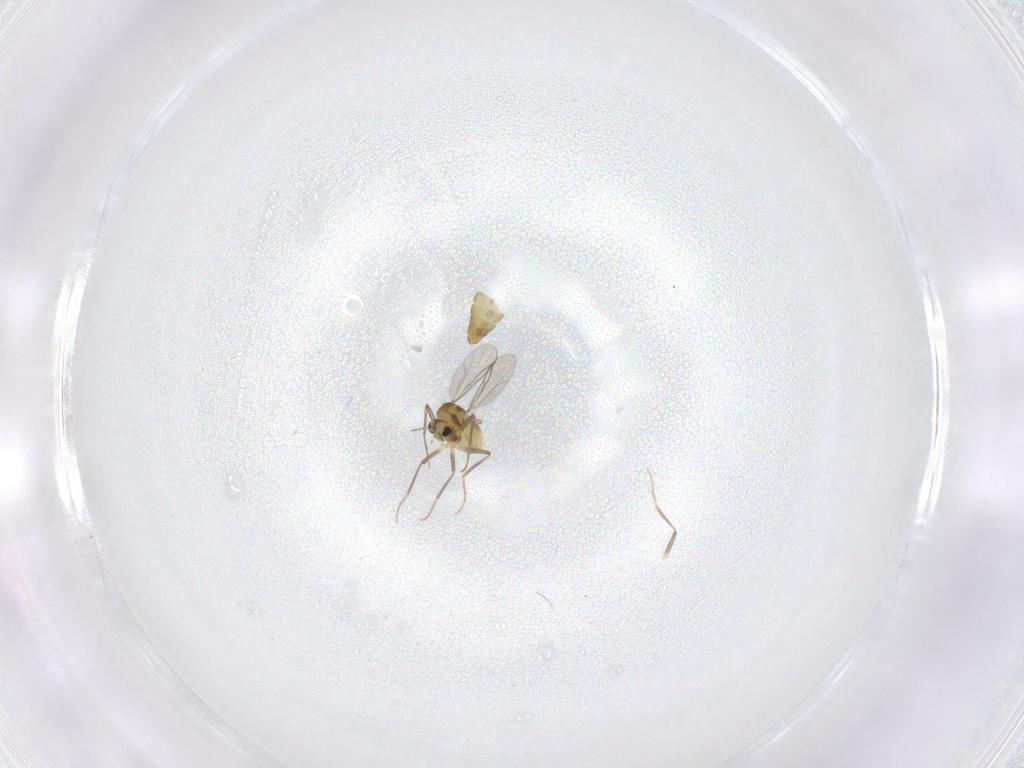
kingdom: Animalia
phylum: Arthropoda
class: Insecta
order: Diptera
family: Chironomidae
